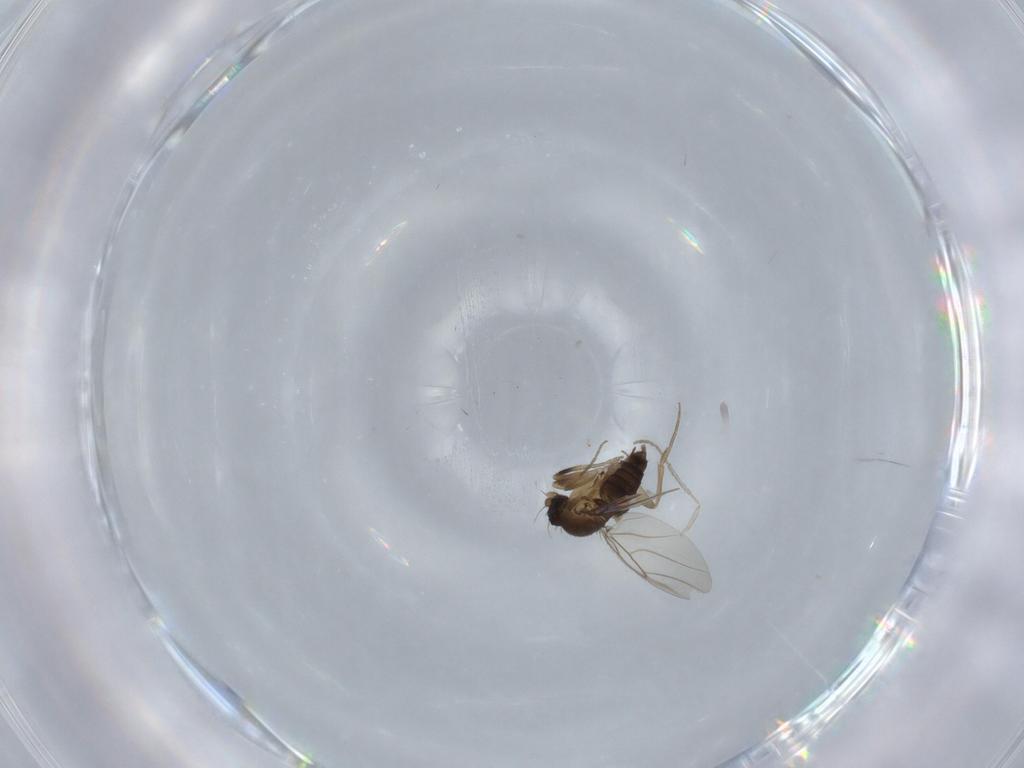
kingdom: Animalia
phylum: Arthropoda
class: Insecta
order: Diptera
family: Phoridae
